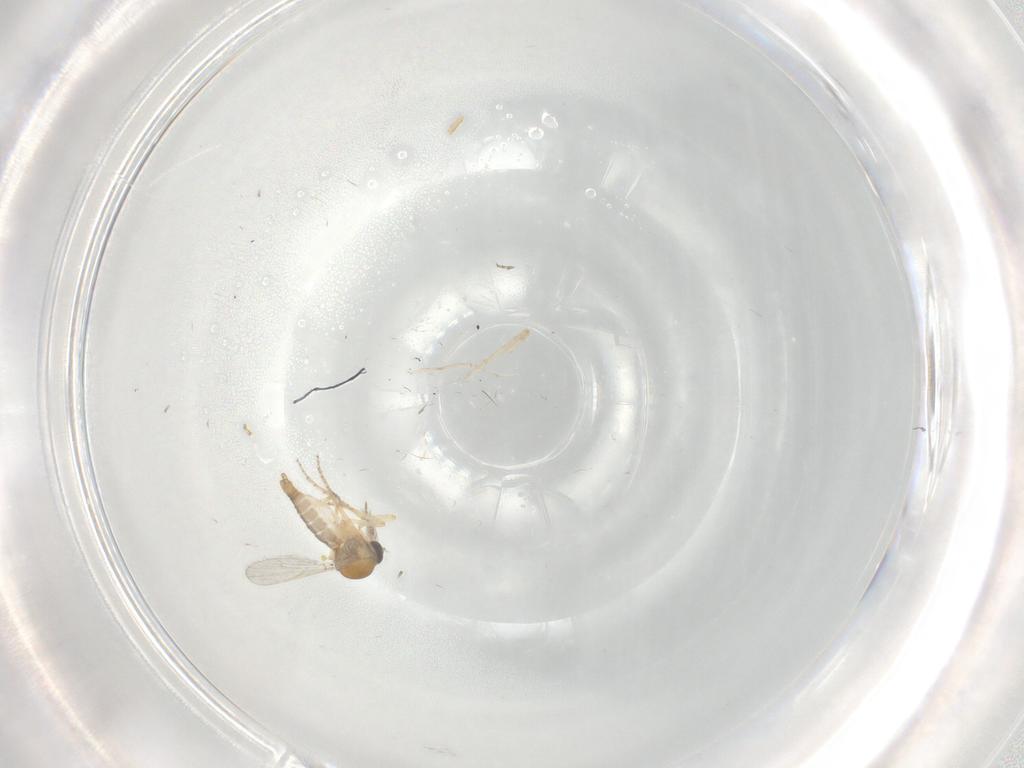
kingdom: Animalia
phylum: Arthropoda
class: Insecta
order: Diptera
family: Ceratopogonidae
